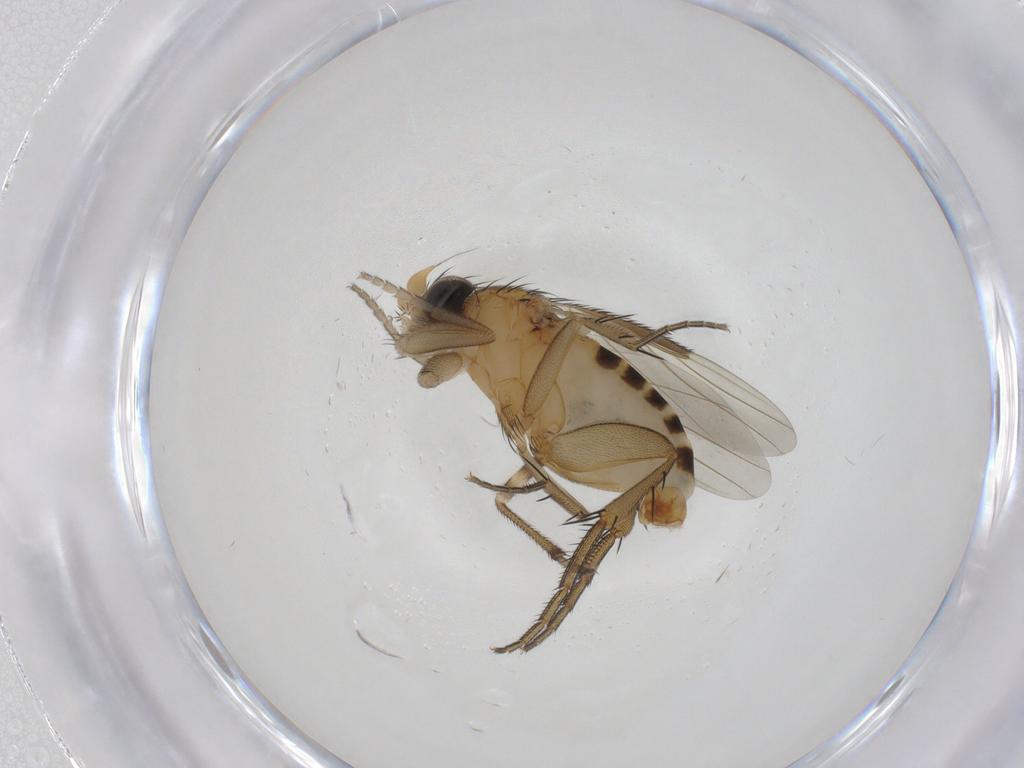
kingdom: Animalia
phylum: Arthropoda
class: Insecta
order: Diptera
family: Phoridae
